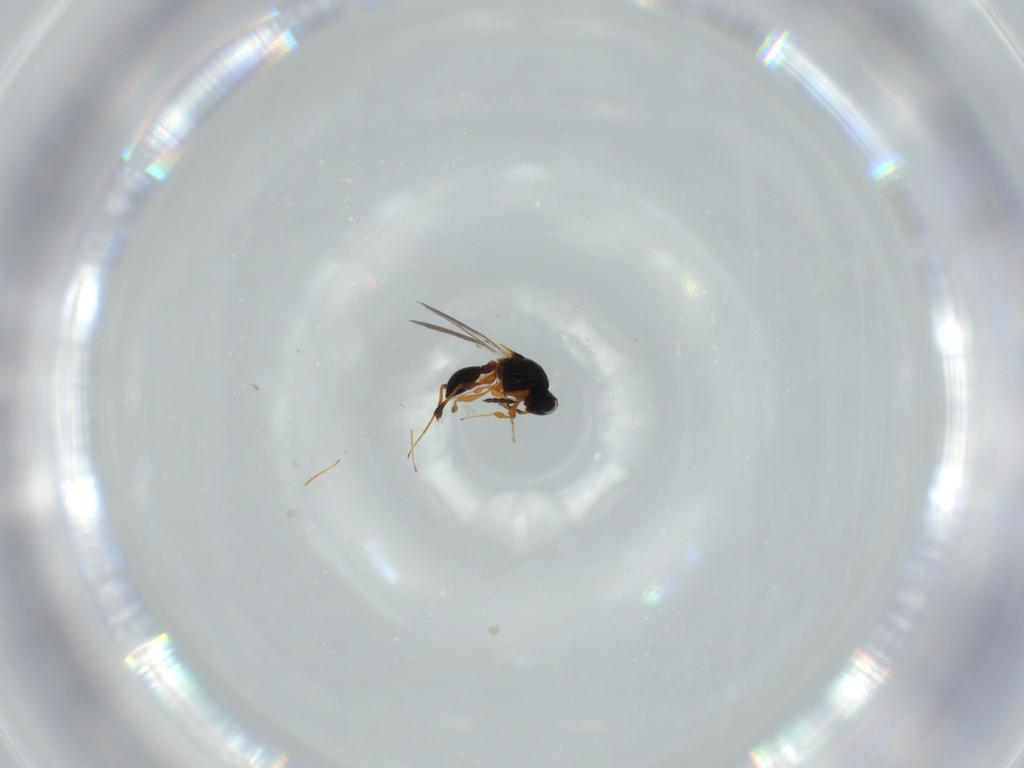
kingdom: Animalia
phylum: Arthropoda
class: Insecta
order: Hymenoptera
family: Platygastridae
